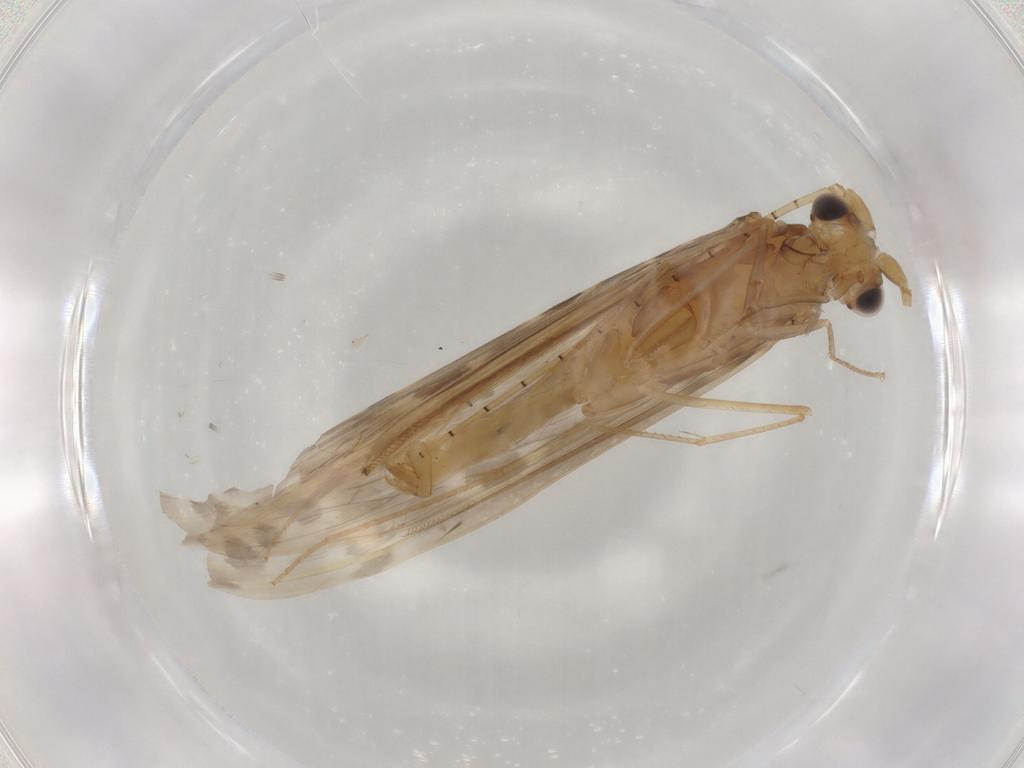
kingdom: Animalia
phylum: Arthropoda
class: Insecta
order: Trichoptera
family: Leptoceridae
